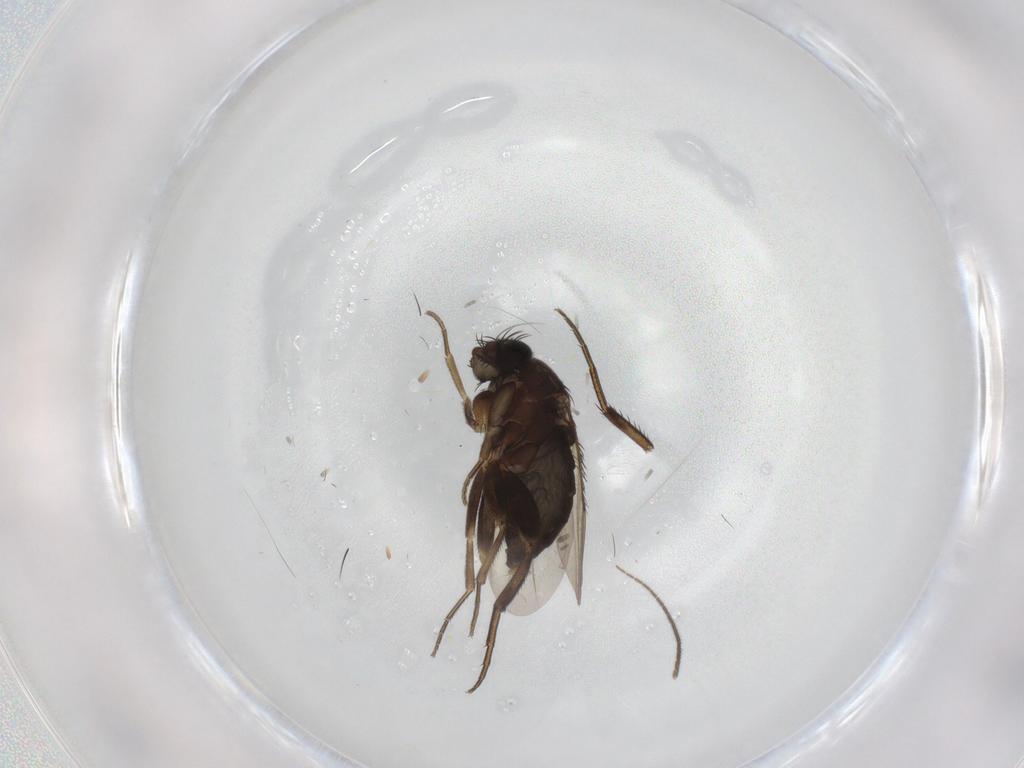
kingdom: Animalia
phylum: Arthropoda
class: Insecta
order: Diptera
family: Phoridae
